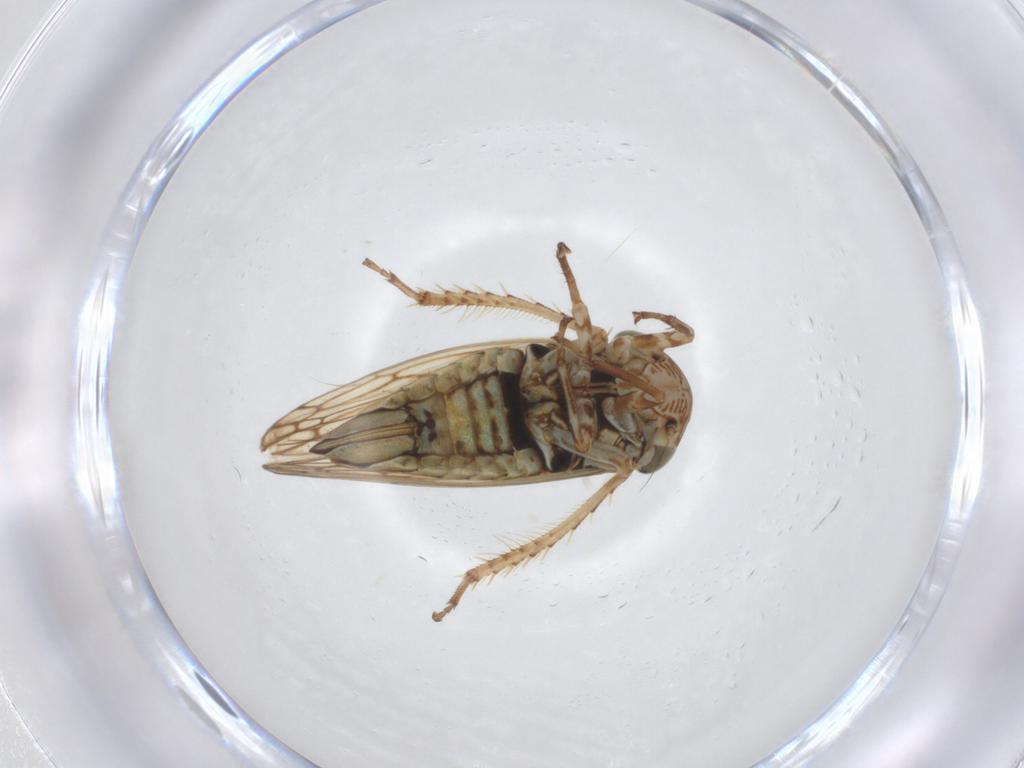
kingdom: Animalia
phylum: Arthropoda
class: Insecta
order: Hemiptera
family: Cicadellidae
